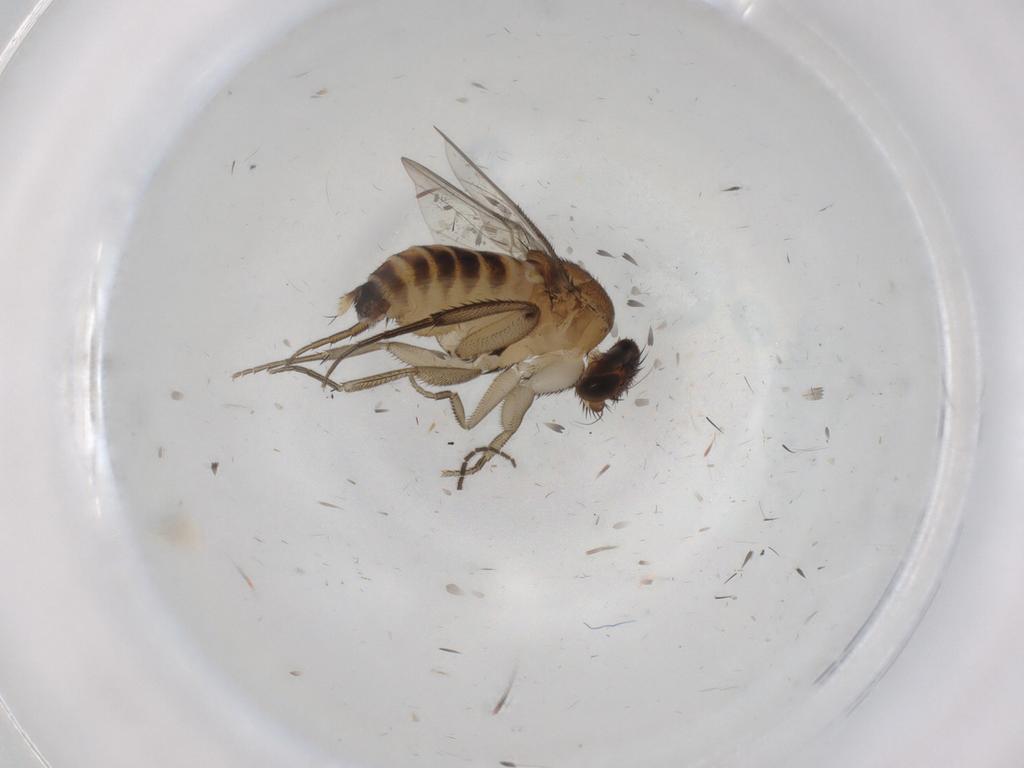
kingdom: Animalia
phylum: Arthropoda
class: Insecta
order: Diptera
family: Phoridae
